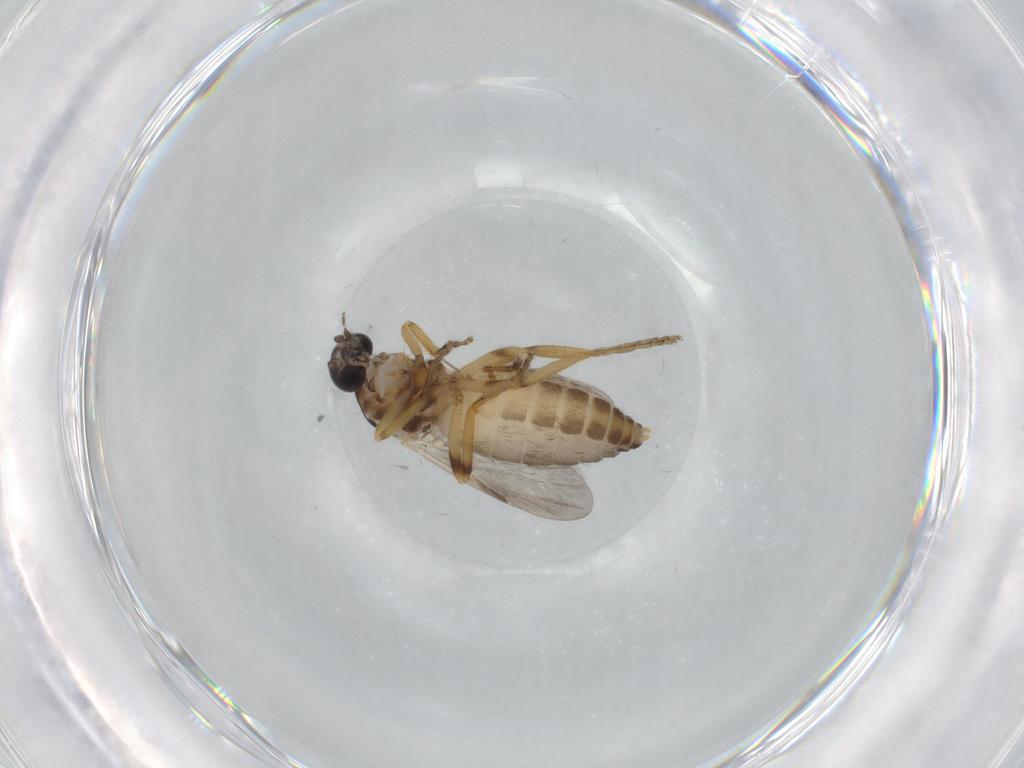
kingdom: Animalia
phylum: Arthropoda
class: Insecta
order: Diptera
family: Chironomidae
